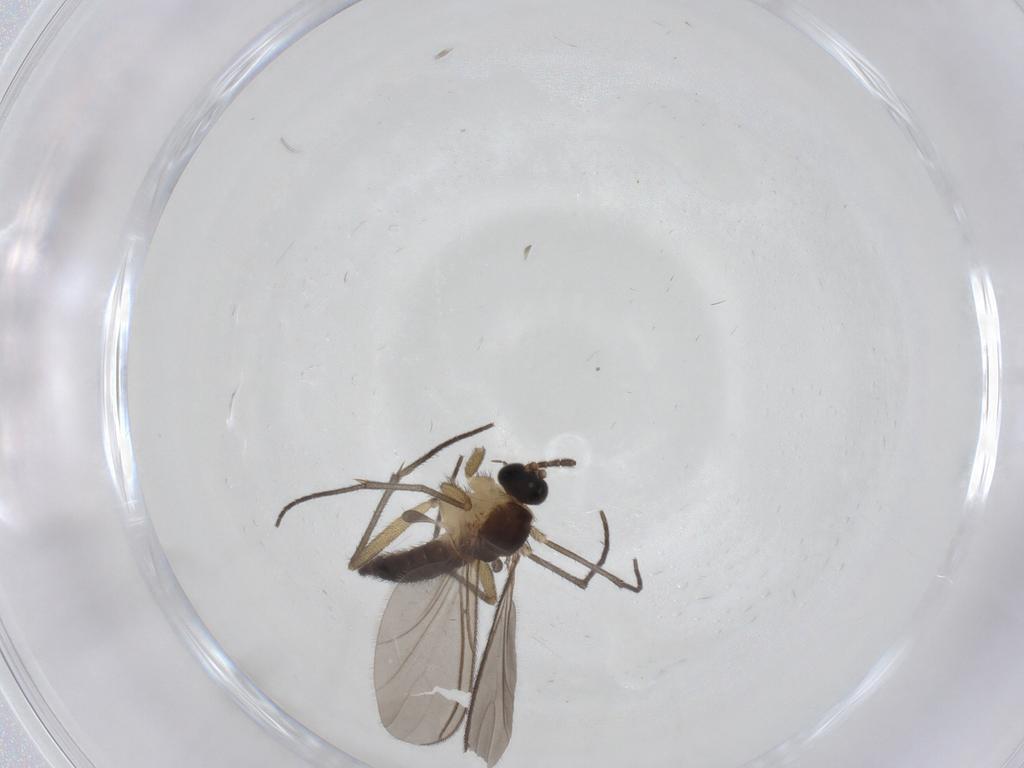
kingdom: Animalia
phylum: Arthropoda
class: Insecta
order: Diptera
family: Sciaridae
